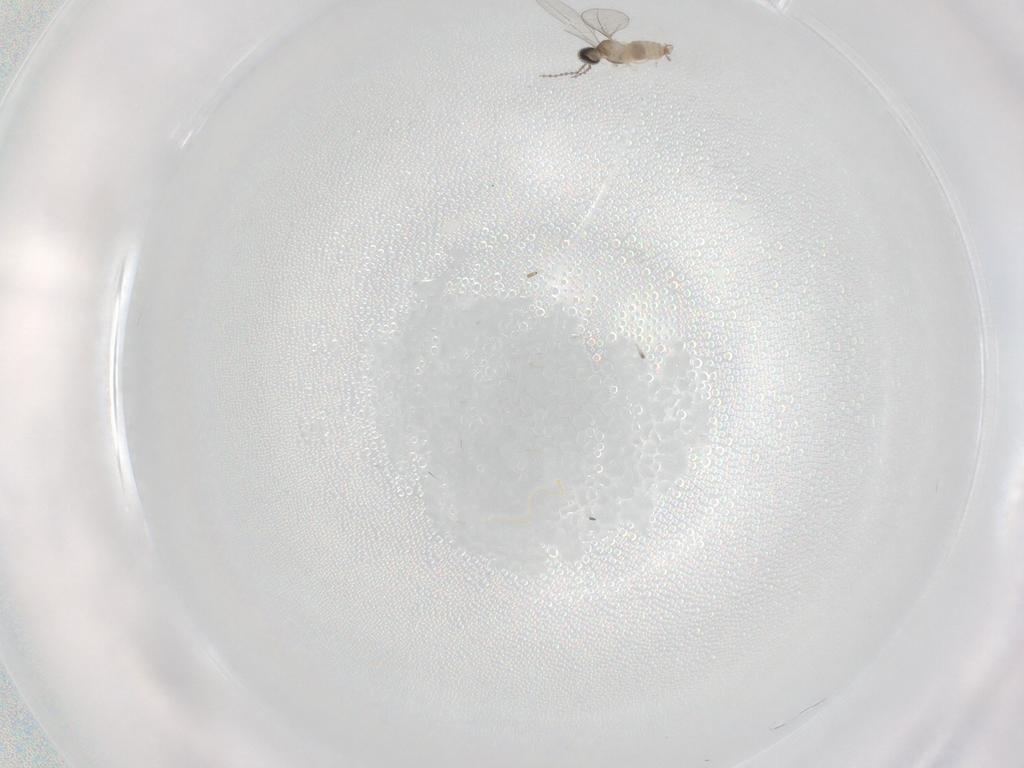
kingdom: Animalia
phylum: Arthropoda
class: Insecta
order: Diptera
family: Cecidomyiidae
